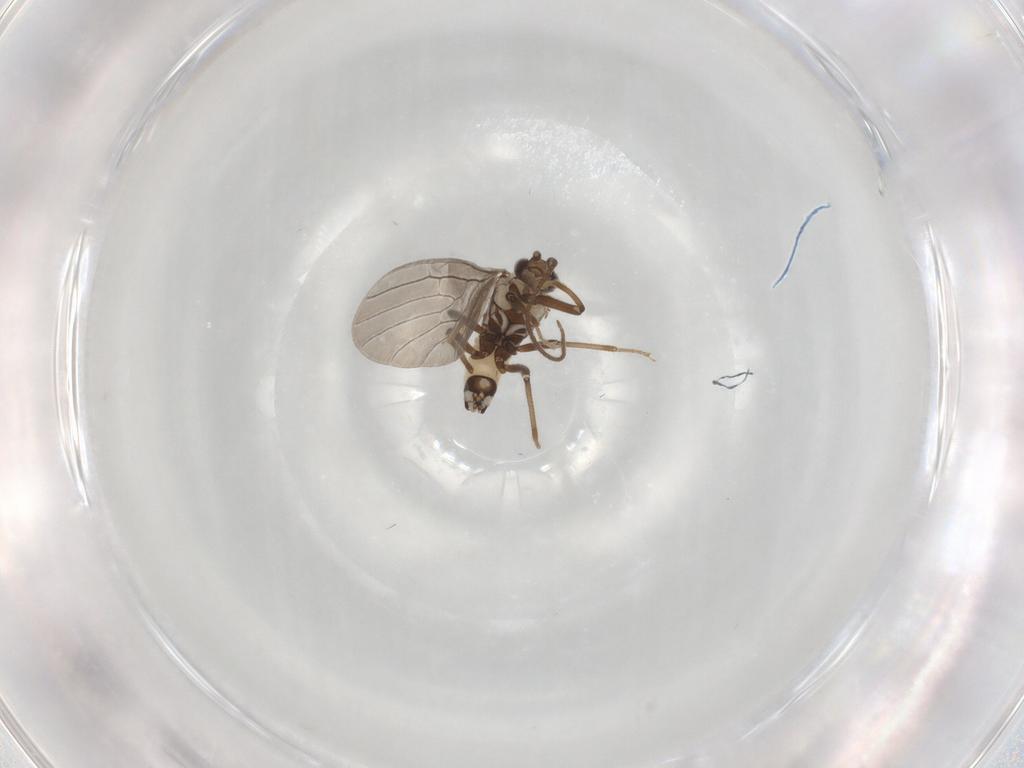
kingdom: Animalia
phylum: Arthropoda
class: Insecta
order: Neuroptera
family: Coniopterygidae
